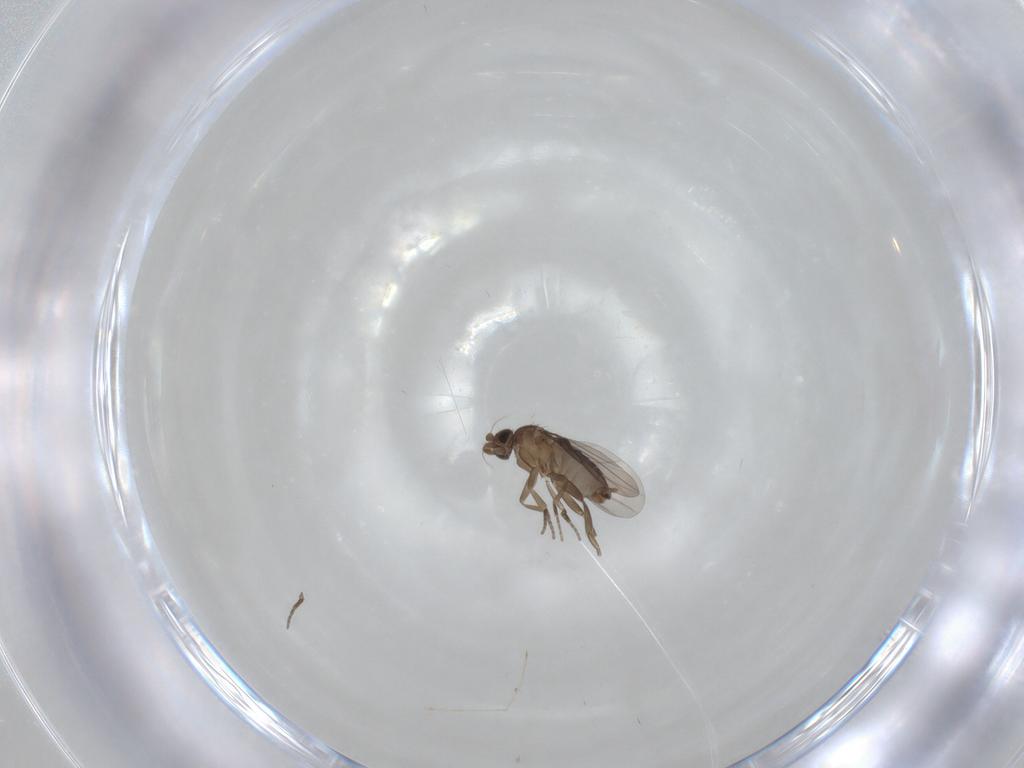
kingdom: Animalia
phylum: Arthropoda
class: Insecta
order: Diptera
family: Phoridae
